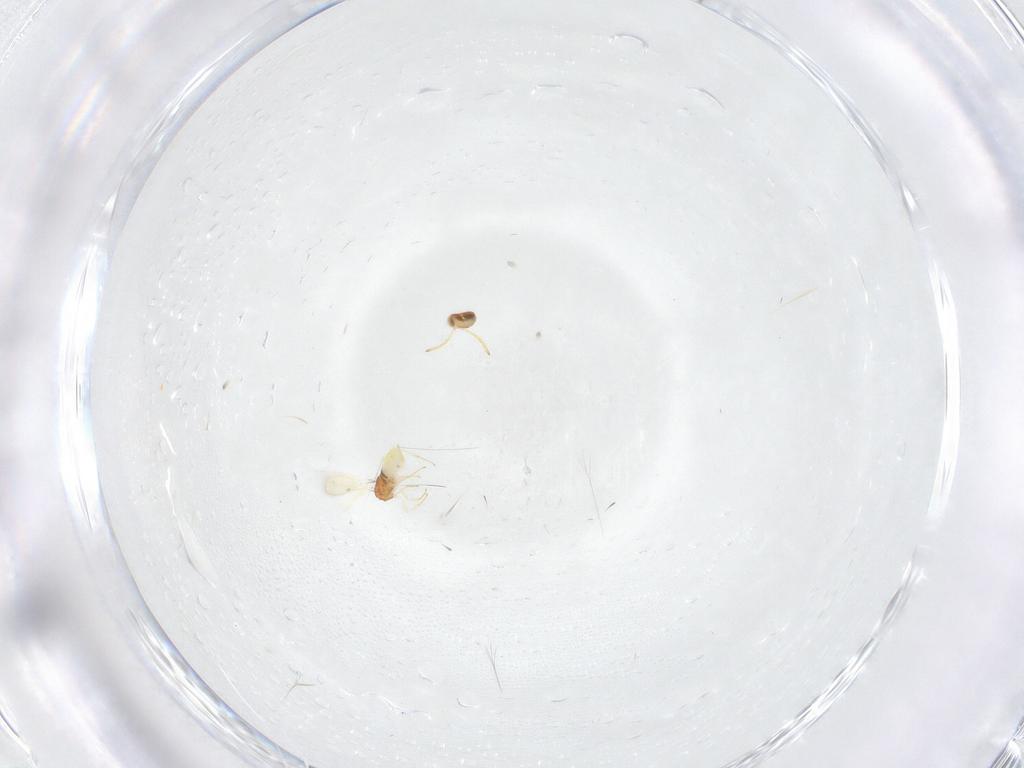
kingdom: Animalia
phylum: Arthropoda
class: Insecta
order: Hymenoptera
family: Aphelinidae
